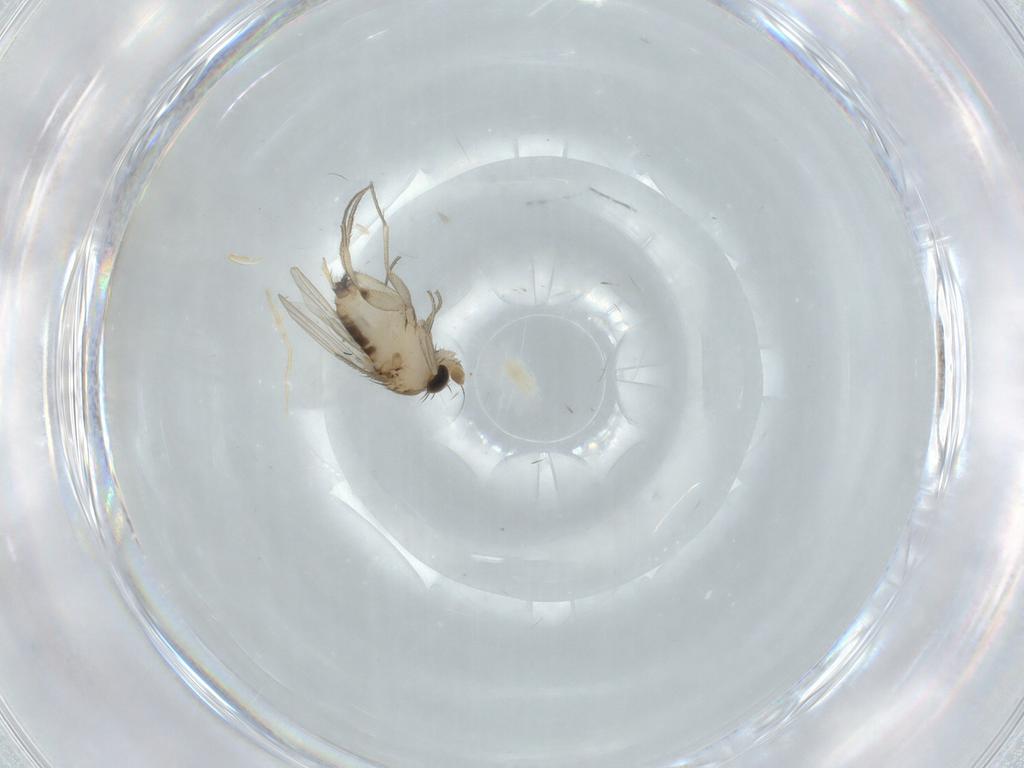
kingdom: Animalia
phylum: Arthropoda
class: Insecta
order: Diptera
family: Phoridae
